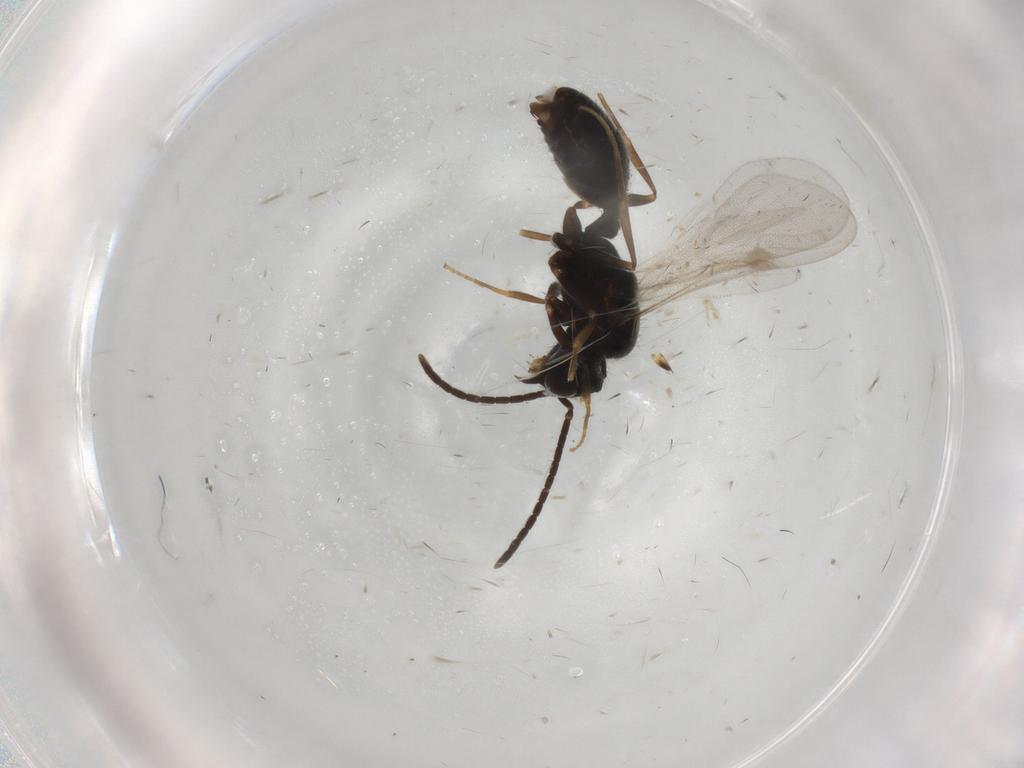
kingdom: Animalia
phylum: Arthropoda
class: Insecta
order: Hymenoptera
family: Formicidae
